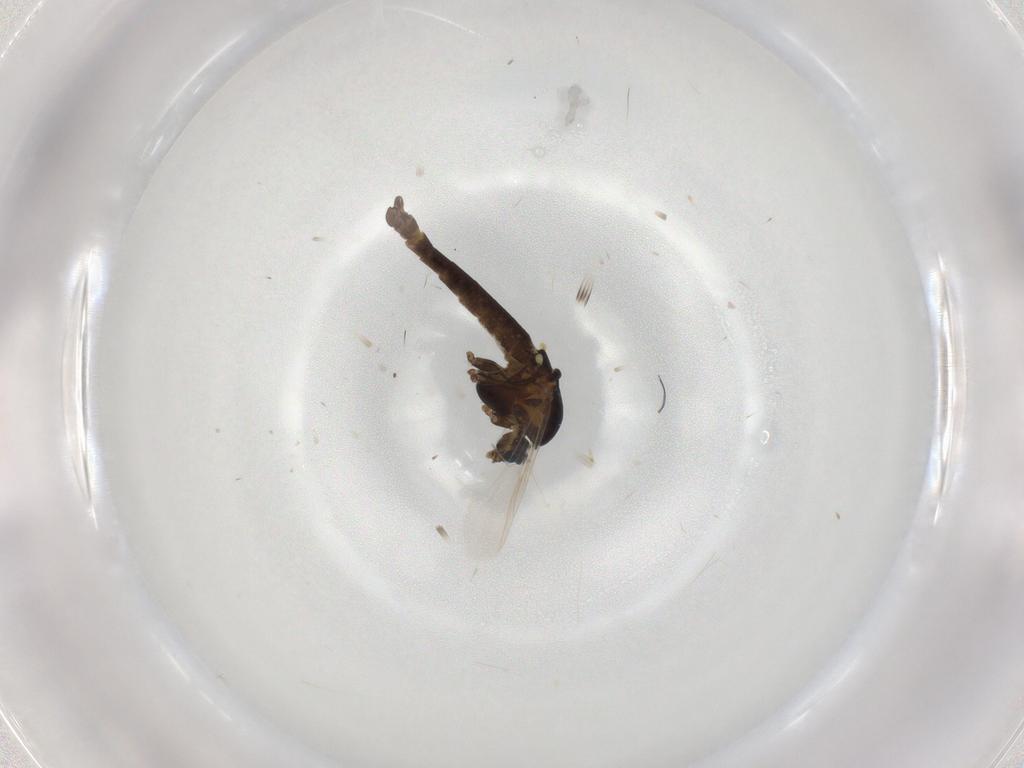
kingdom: Animalia
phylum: Arthropoda
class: Insecta
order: Diptera
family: Chironomidae
